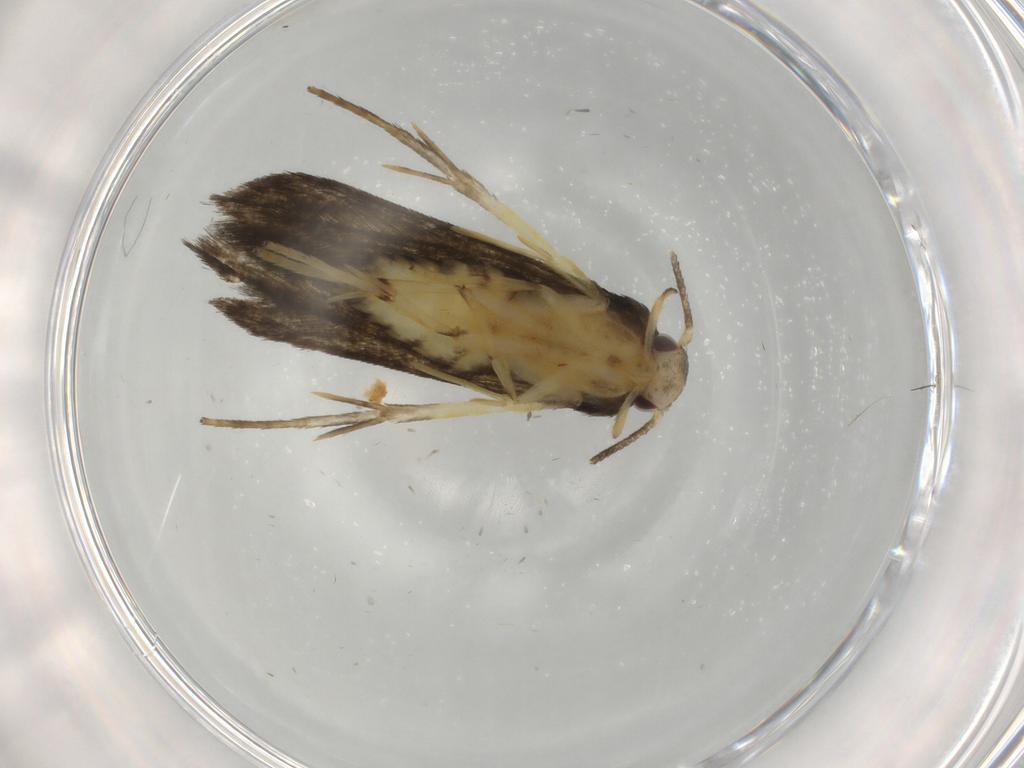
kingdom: Animalia
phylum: Arthropoda
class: Insecta
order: Lepidoptera
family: Stathmopodidae
